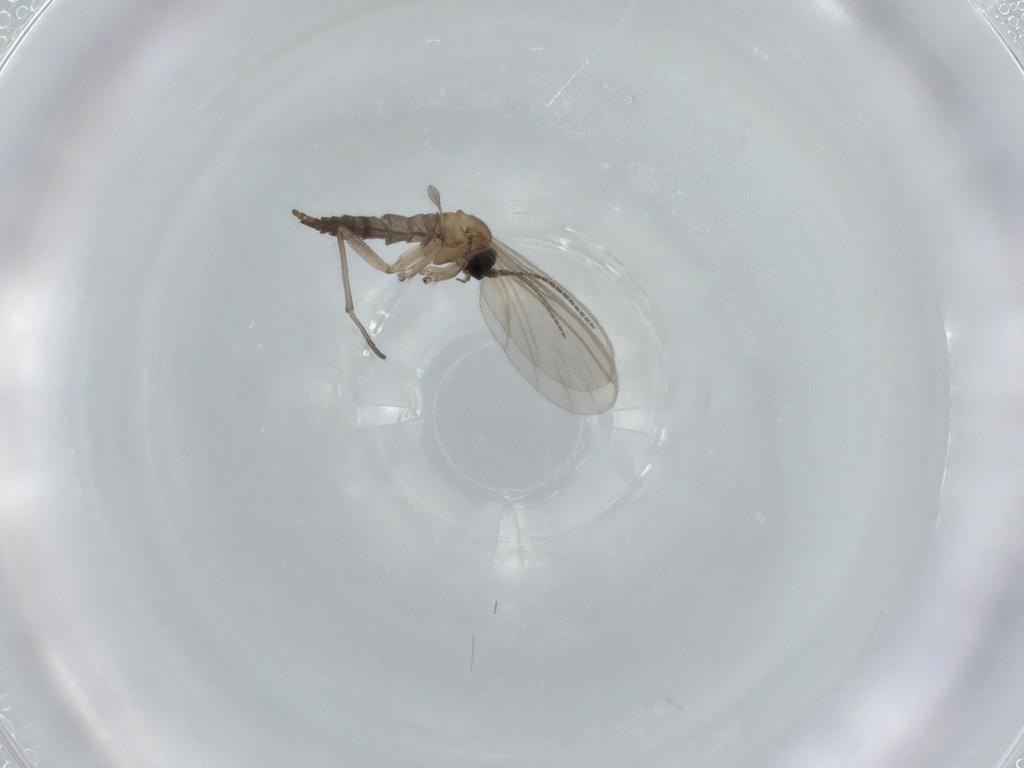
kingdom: Animalia
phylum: Arthropoda
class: Insecta
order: Diptera
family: Sciaridae
